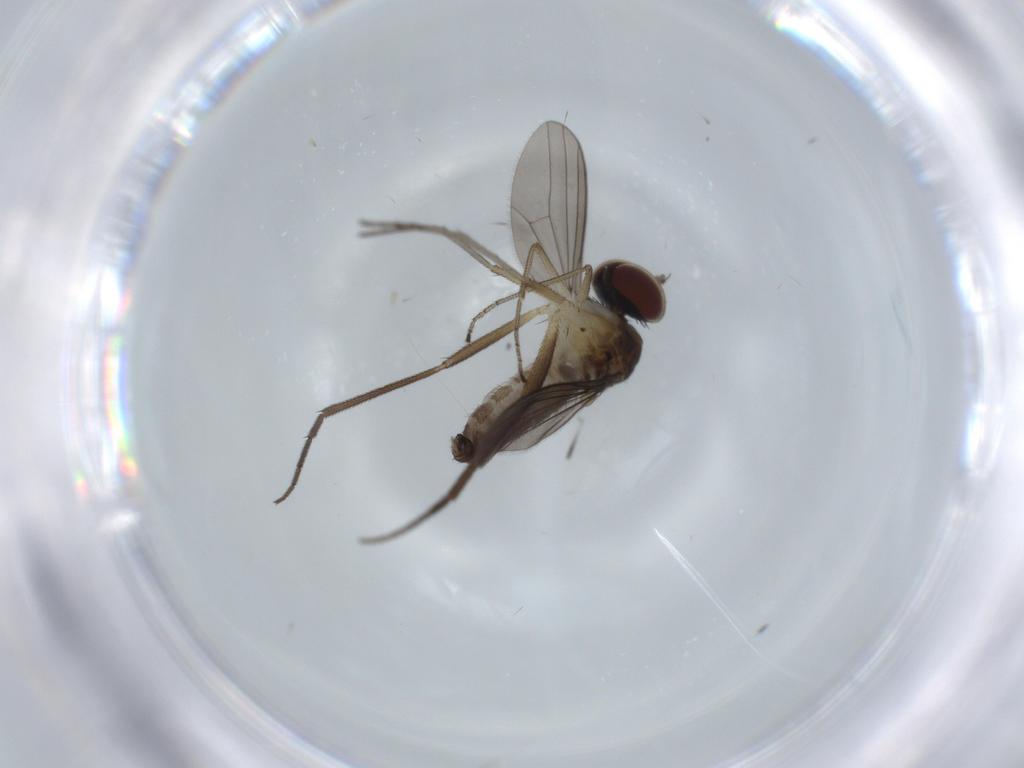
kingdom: Animalia
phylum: Arthropoda
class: Insecta
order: Diptera
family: Dolichopodidae
